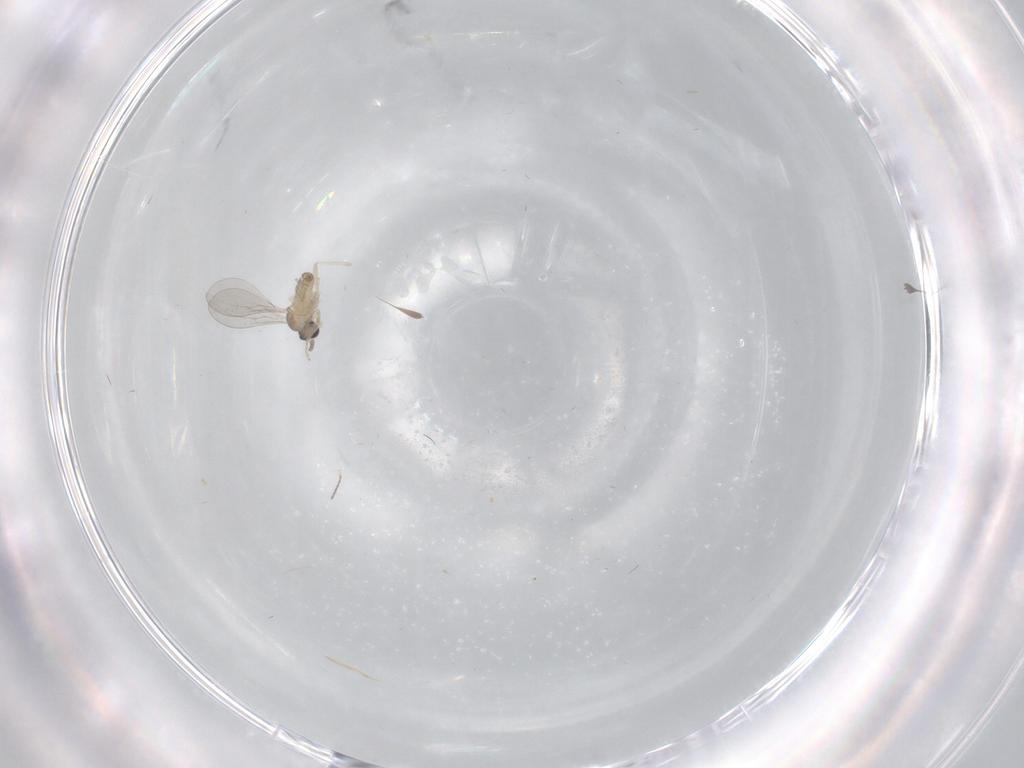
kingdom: Animalia
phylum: Arthropoda
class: Insecta
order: Diptera
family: Cecidomyiidae
